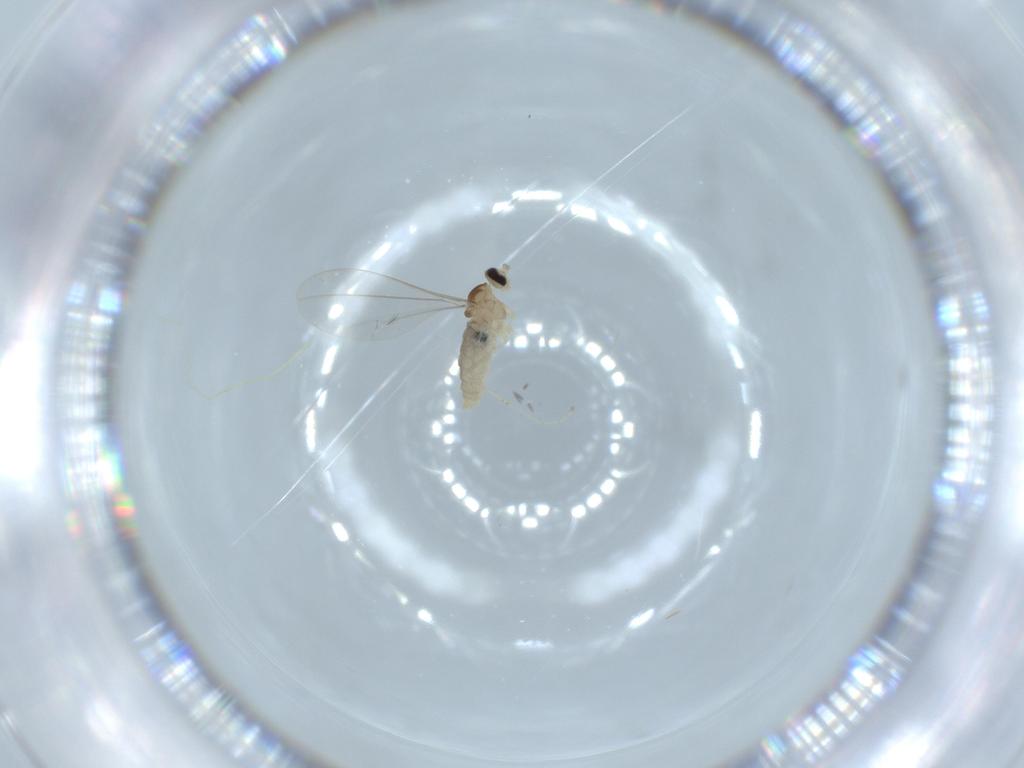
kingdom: Animalia
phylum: Arthropoda
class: Insecta
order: Diptera
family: Cecidomyiidae
